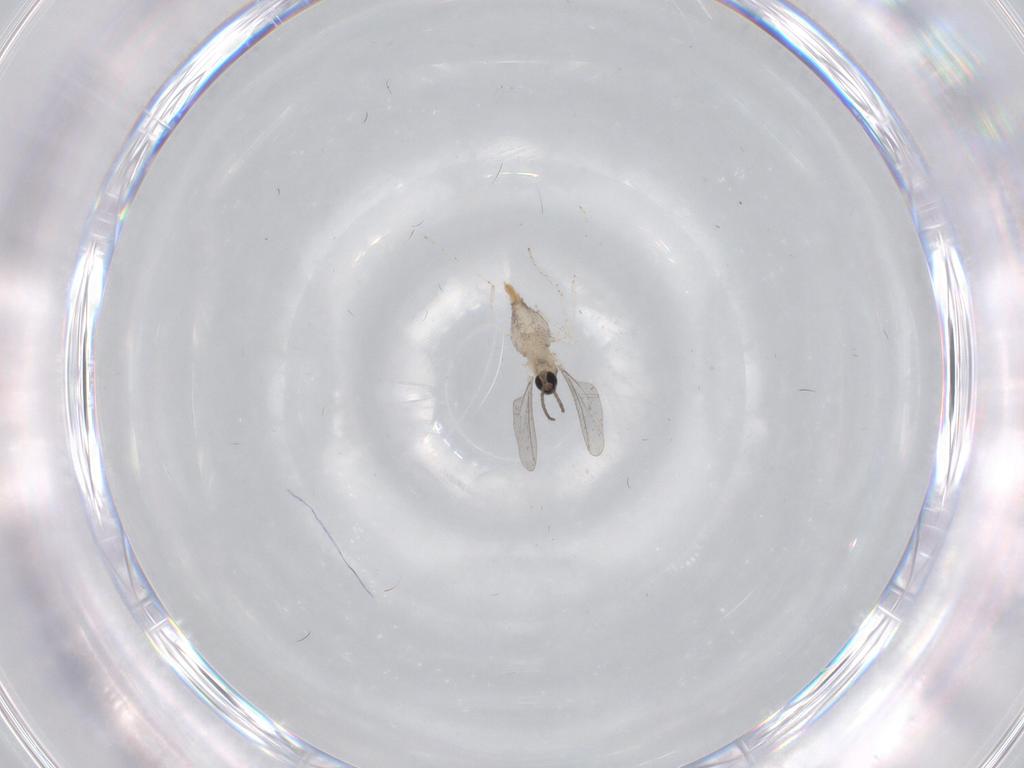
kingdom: Animalia
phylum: Arthropoda
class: Insecta
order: Diptera
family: Cecidomyiidae
